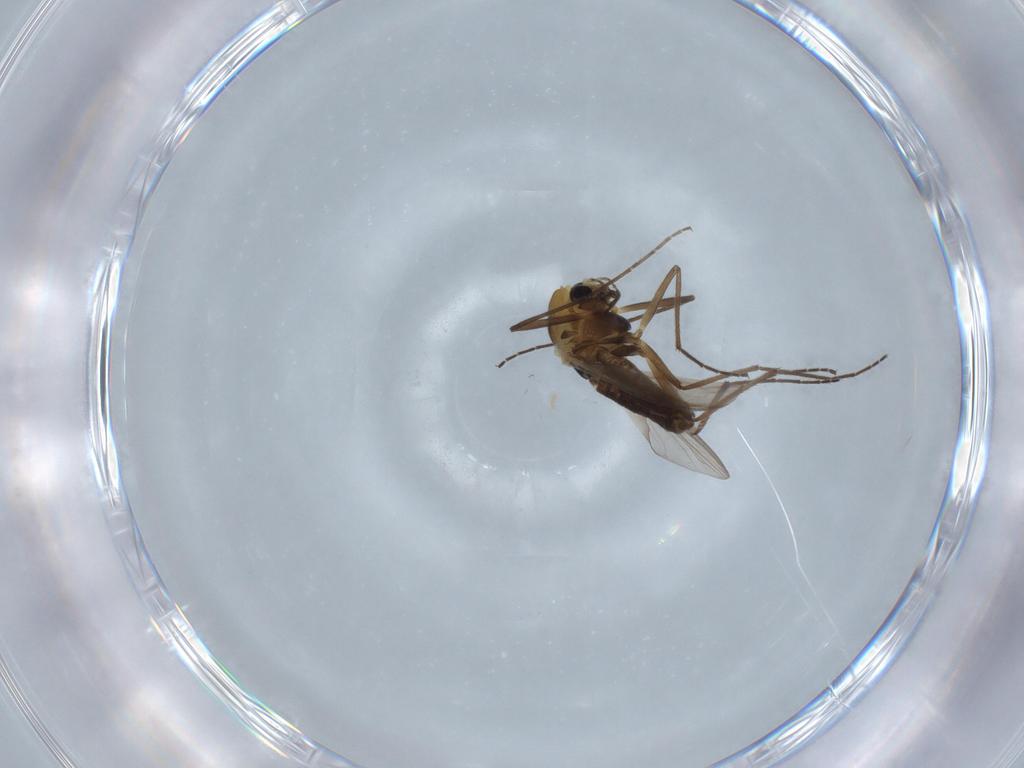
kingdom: Animalia
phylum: Arthropoda
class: Insecta
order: Diptera
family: Chironomidae
